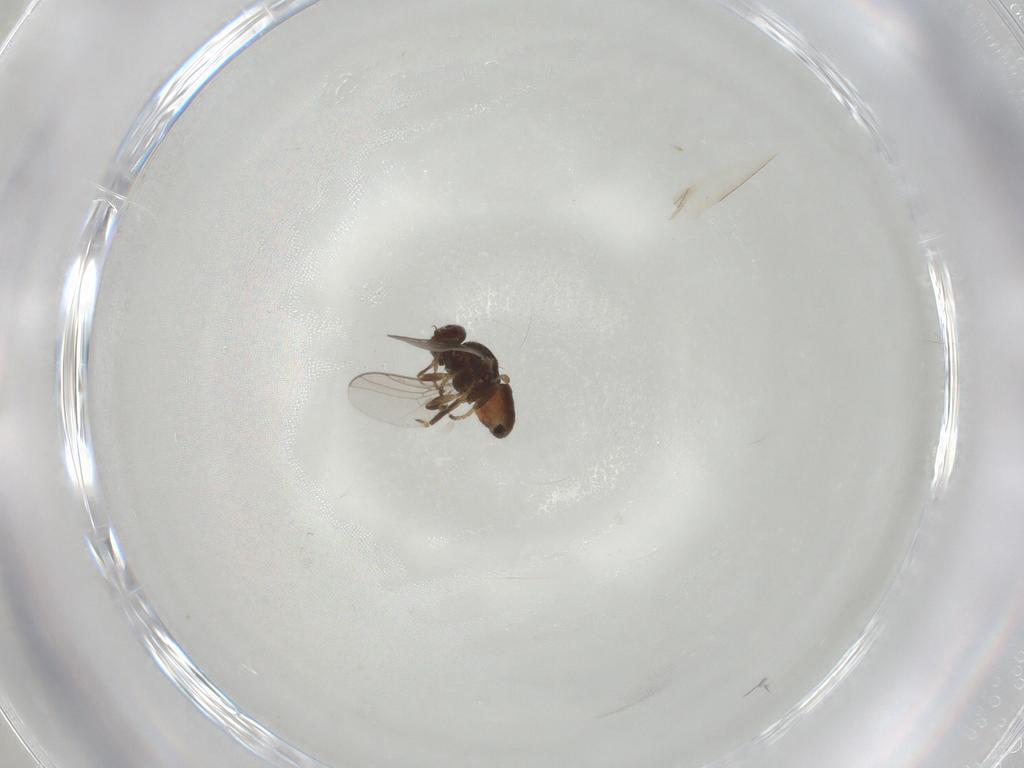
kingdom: Animalia
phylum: Arthropoda
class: Insecta
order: Diptera
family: Chloropidae
